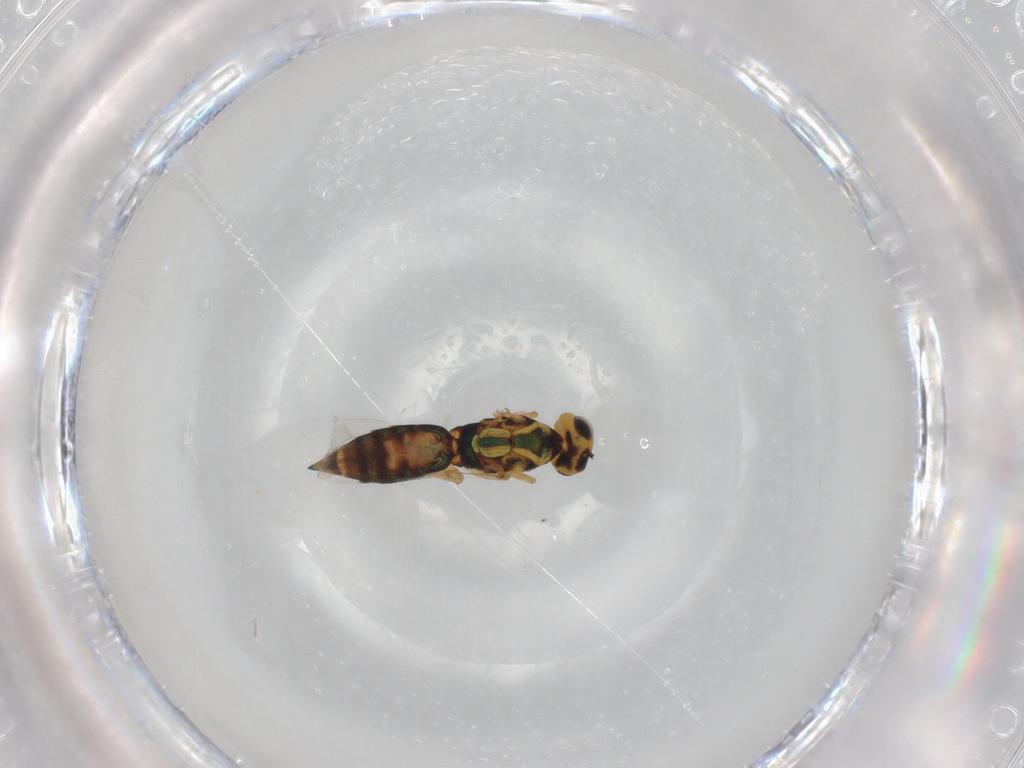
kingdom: Animalia
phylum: Arthropoda
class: Insecta
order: Hymenoptera
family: Eulophidae
